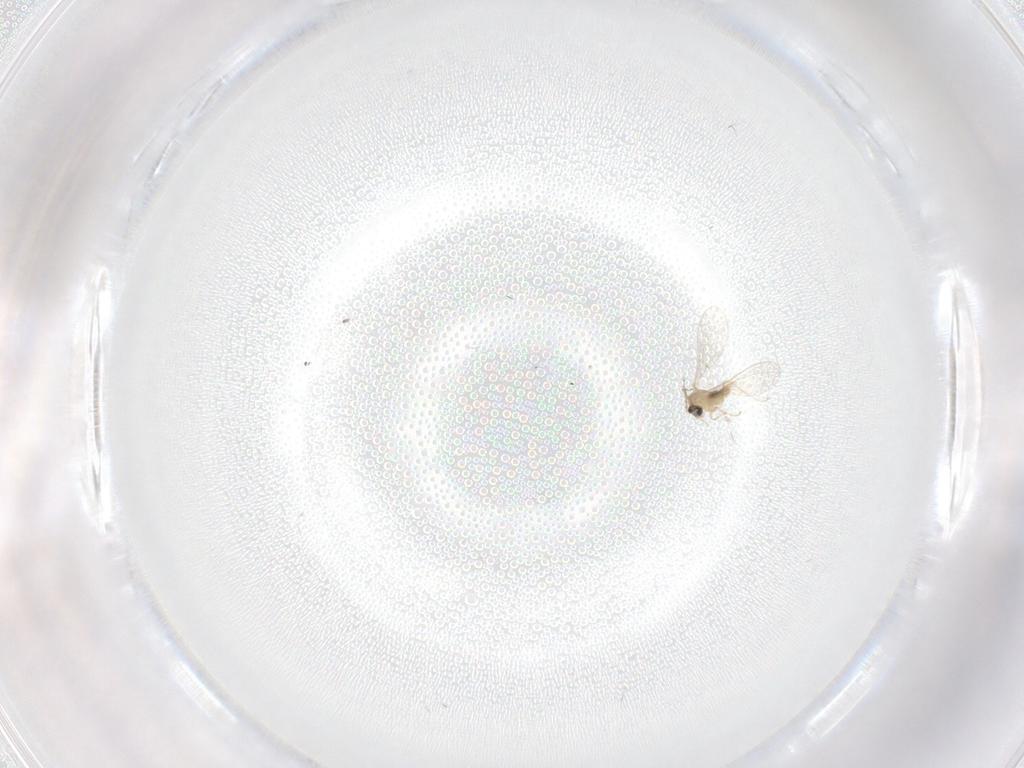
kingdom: Animalia
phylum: Arthropoda
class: Insecta
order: Diptera
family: Cecidomyiidae
